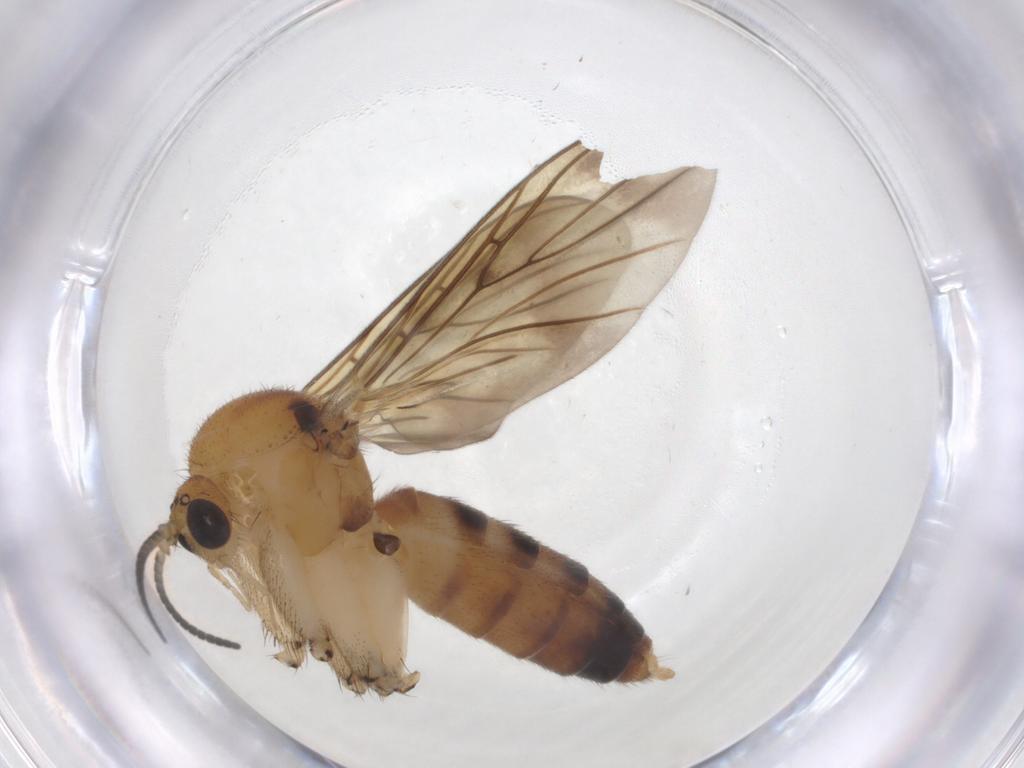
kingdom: Animalia
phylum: Arthropoda
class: Insecta
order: Diptera
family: Mycetophilidae
